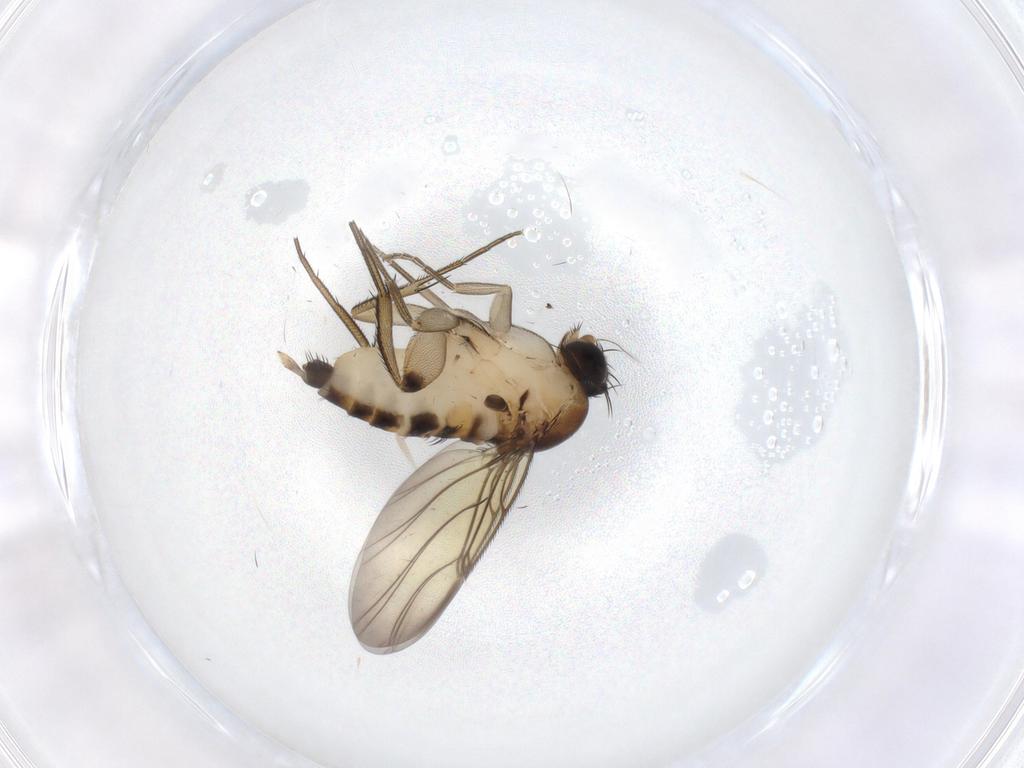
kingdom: Animalia
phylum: Arthropoda
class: Insecta
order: Diptera
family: Phoridae
